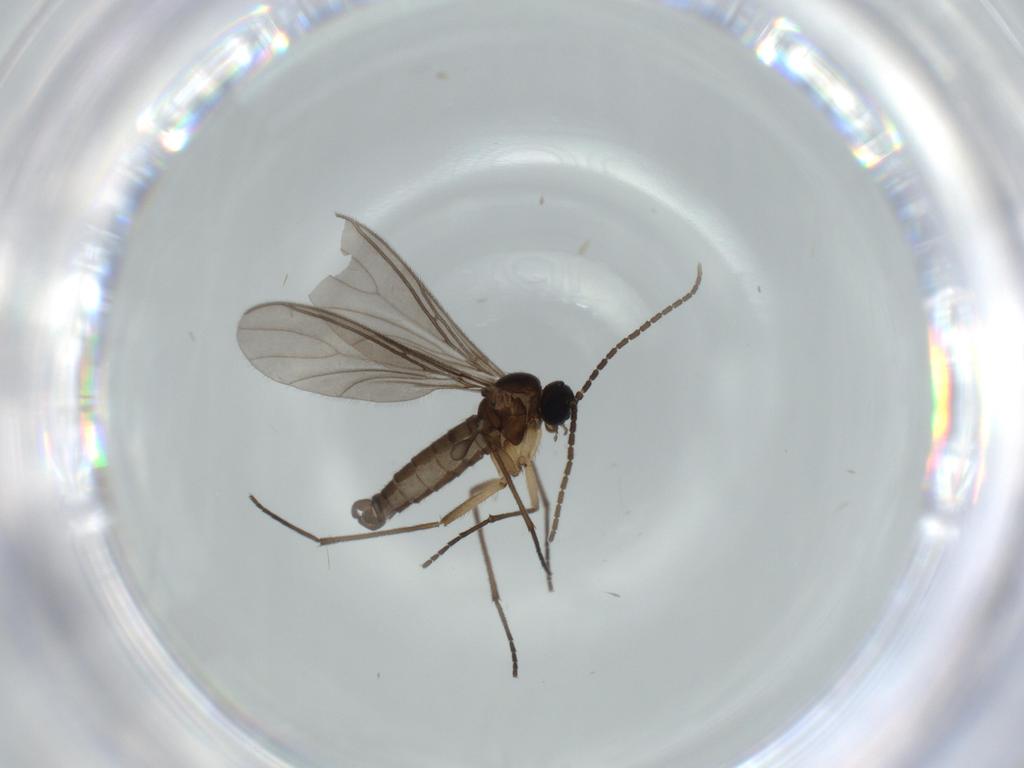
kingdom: Animalia
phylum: Arthropoda
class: Insecta
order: Diptera
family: Sciaridae
